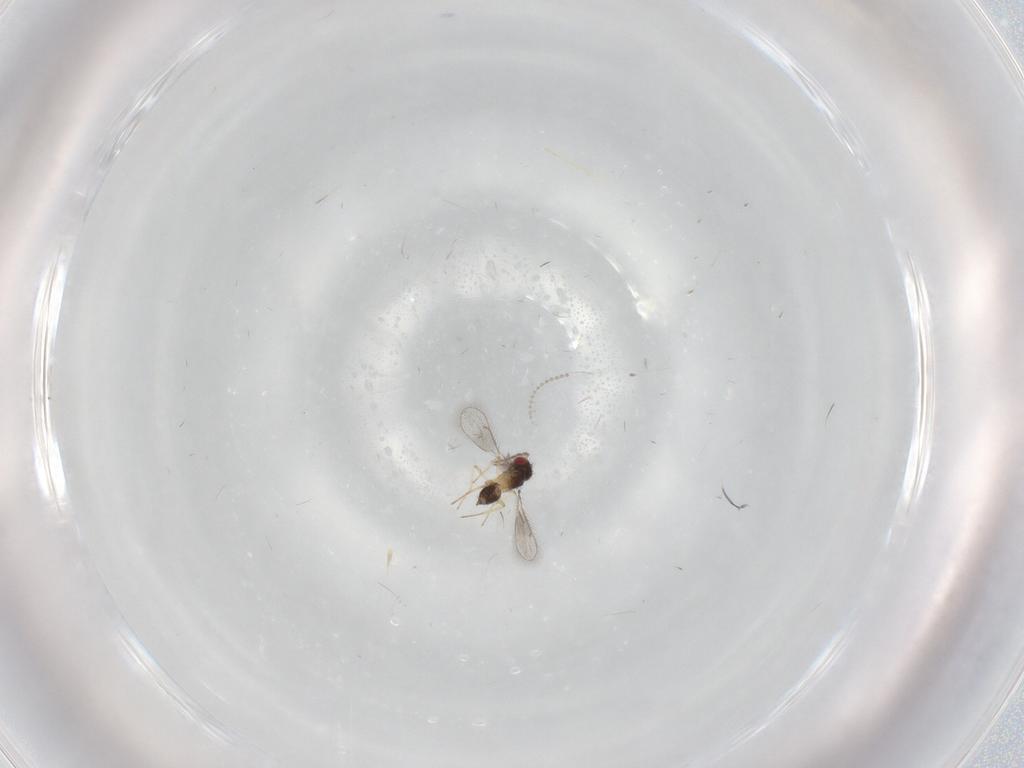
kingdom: Animalia
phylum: Arthropoda
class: Insecta
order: Hymenoptera
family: Eulophidae
